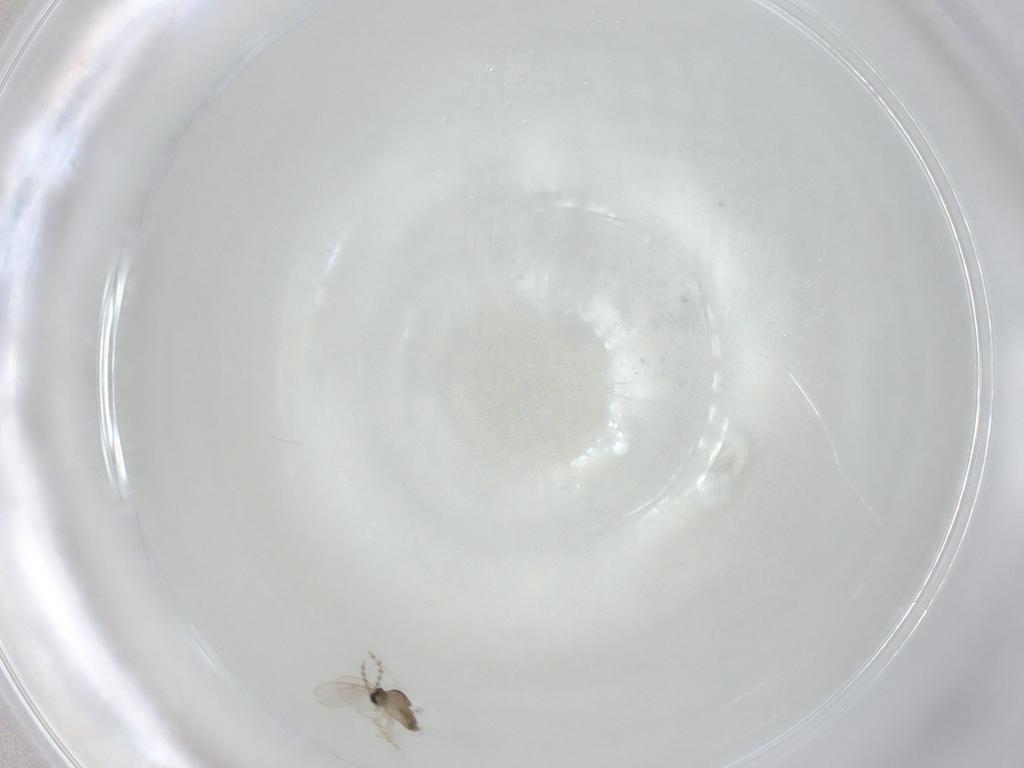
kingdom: Animalia
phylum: Arthropoda
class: Insecta
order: Diptera
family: Cecidomyiidae
